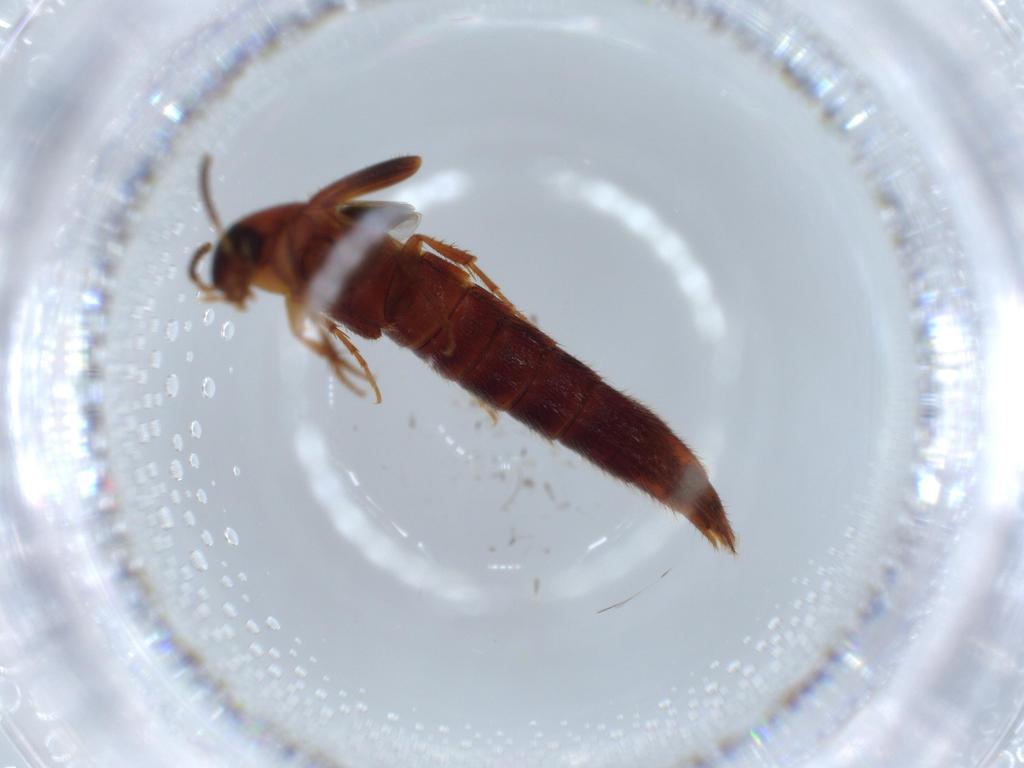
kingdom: Animalia
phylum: Arthropoda
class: Insecta
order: Coleoptera
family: Staphylinidae
